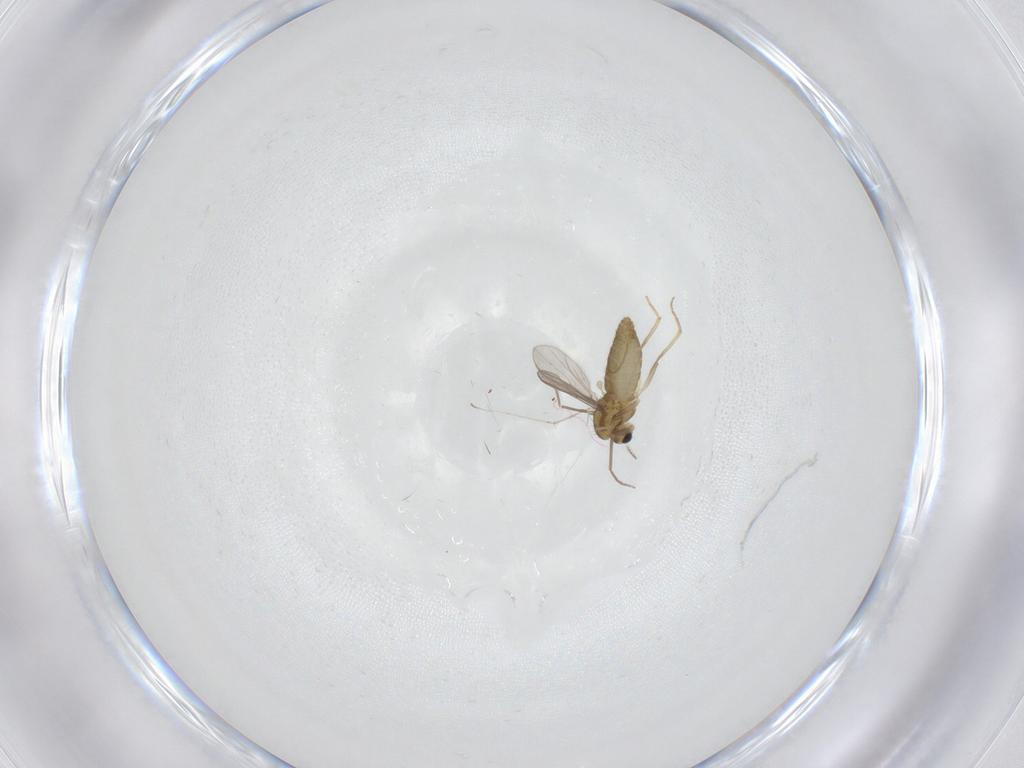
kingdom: Animalia
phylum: Arthropoda
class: Insecta
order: Diptera
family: Chironomidae
